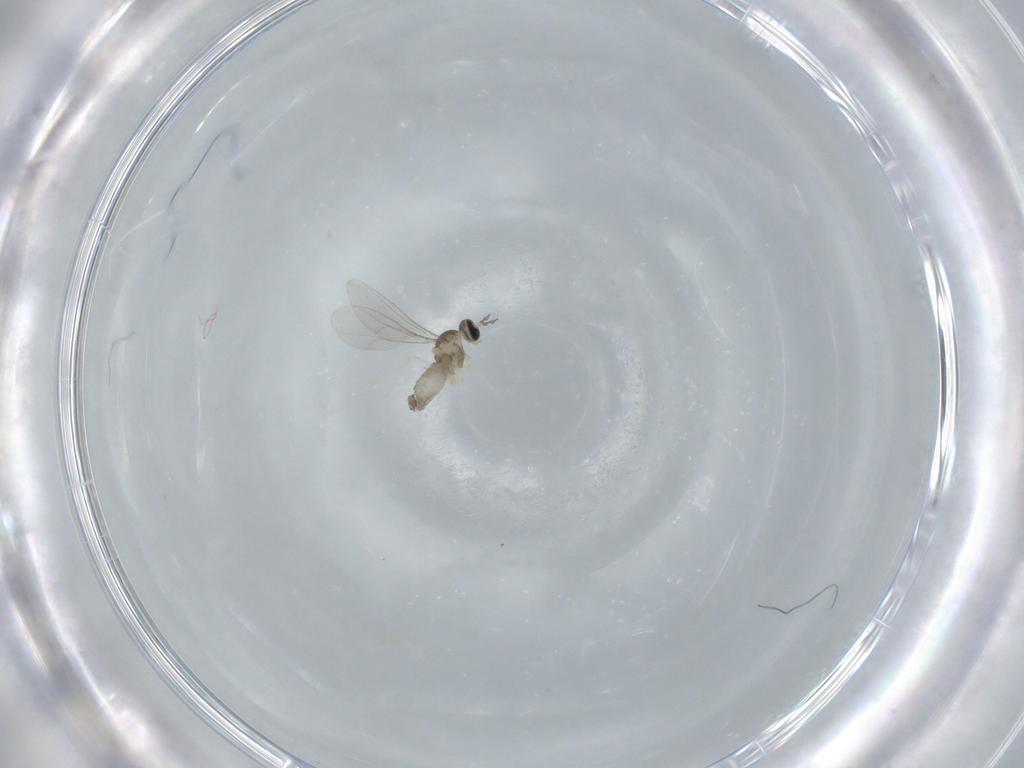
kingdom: Animalia
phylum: Arthropoda
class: Insecta
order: Diptera
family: Cecidomyiidae
